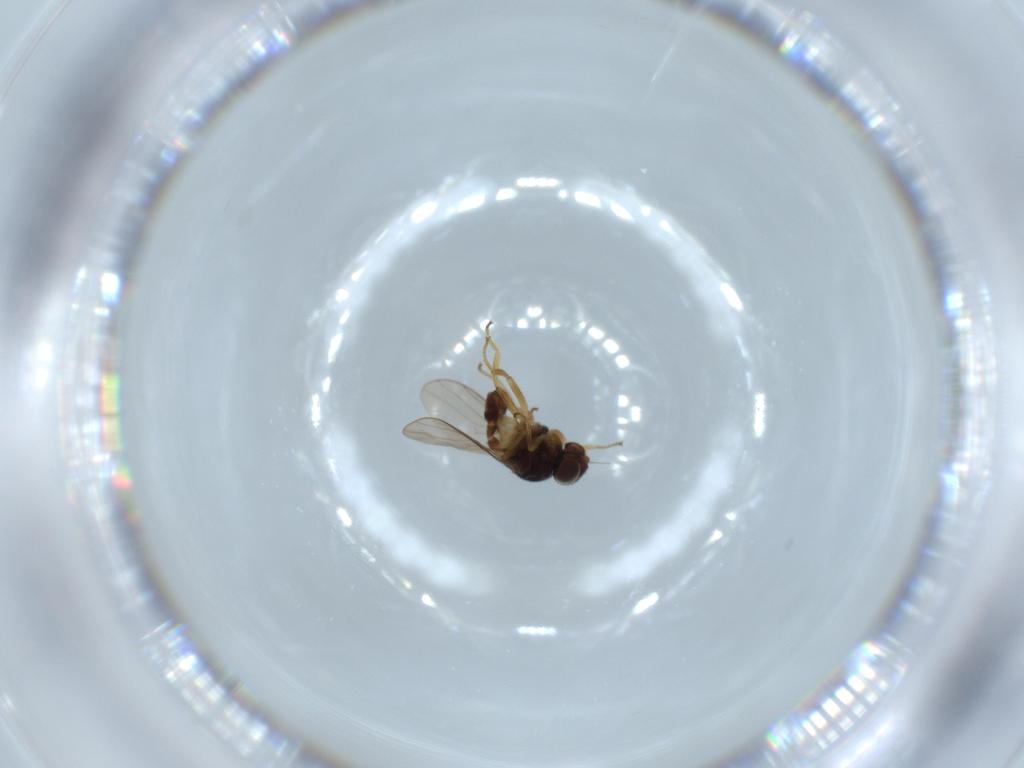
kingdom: Animalia
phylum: Arthropoda
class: Insecta
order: Diptera
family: Chloropidae
